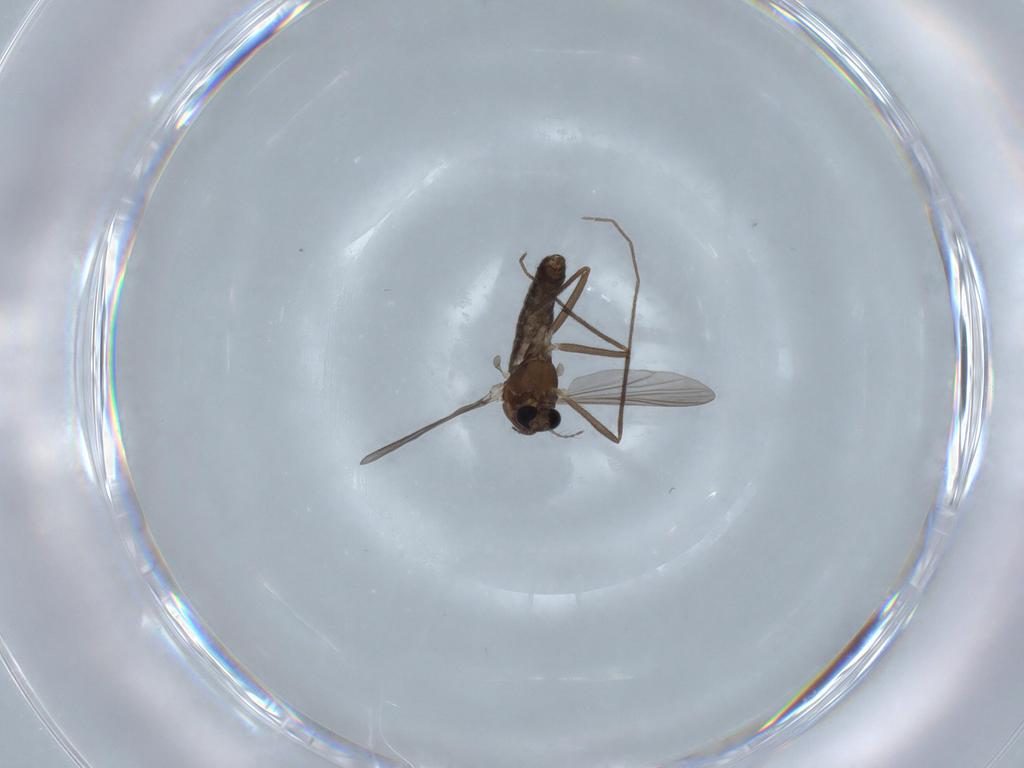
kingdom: Animalia
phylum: Arthropoda
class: Insecta
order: Diptera
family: Chironomidae
